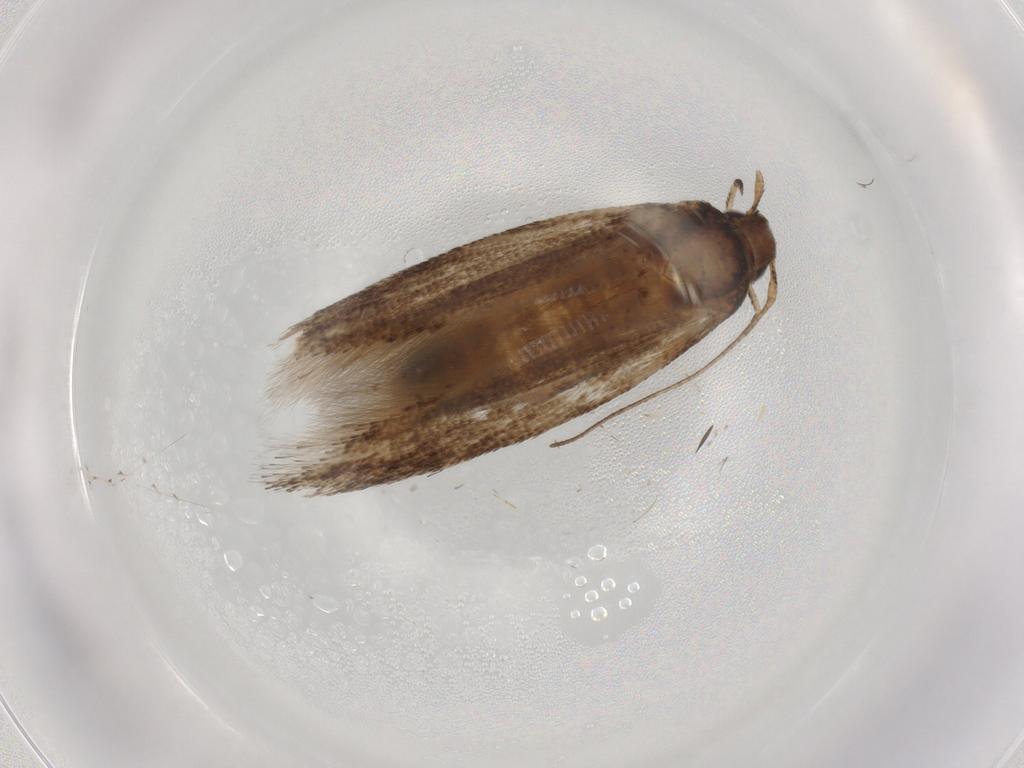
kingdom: Animalia
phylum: Arthropoda
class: Insecta
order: Lepidoptera
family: Cosmopterigidae
